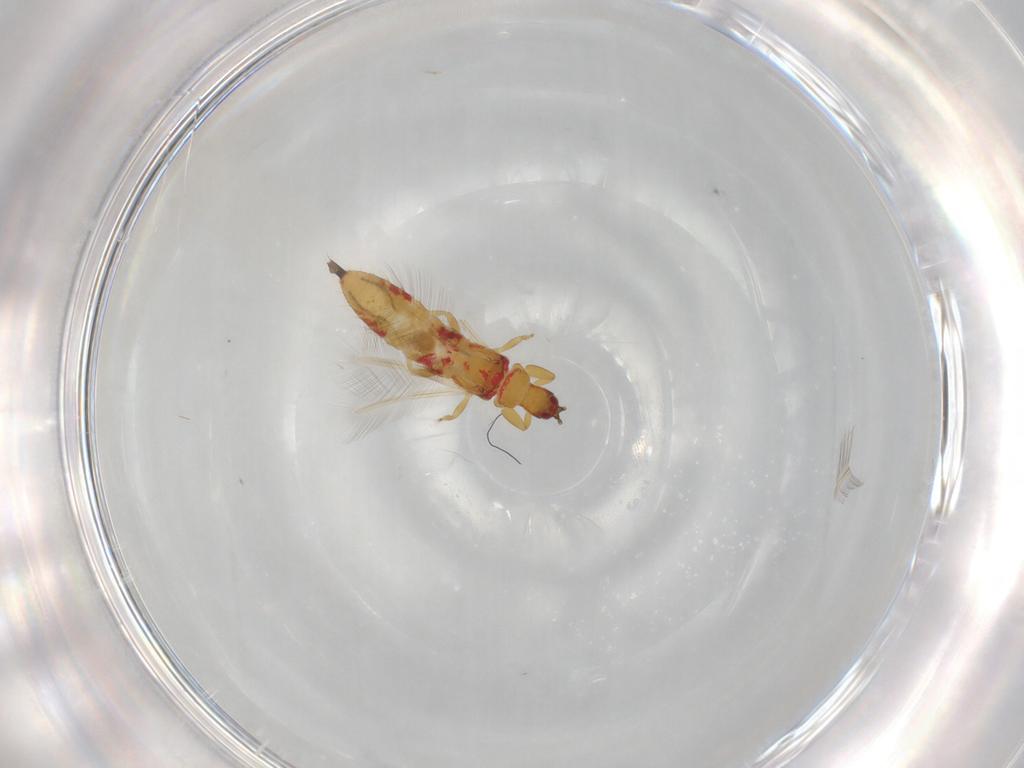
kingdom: Animalia
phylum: Arthropoda
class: Insecta
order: Thysanoptera
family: Phlaeothripidae
